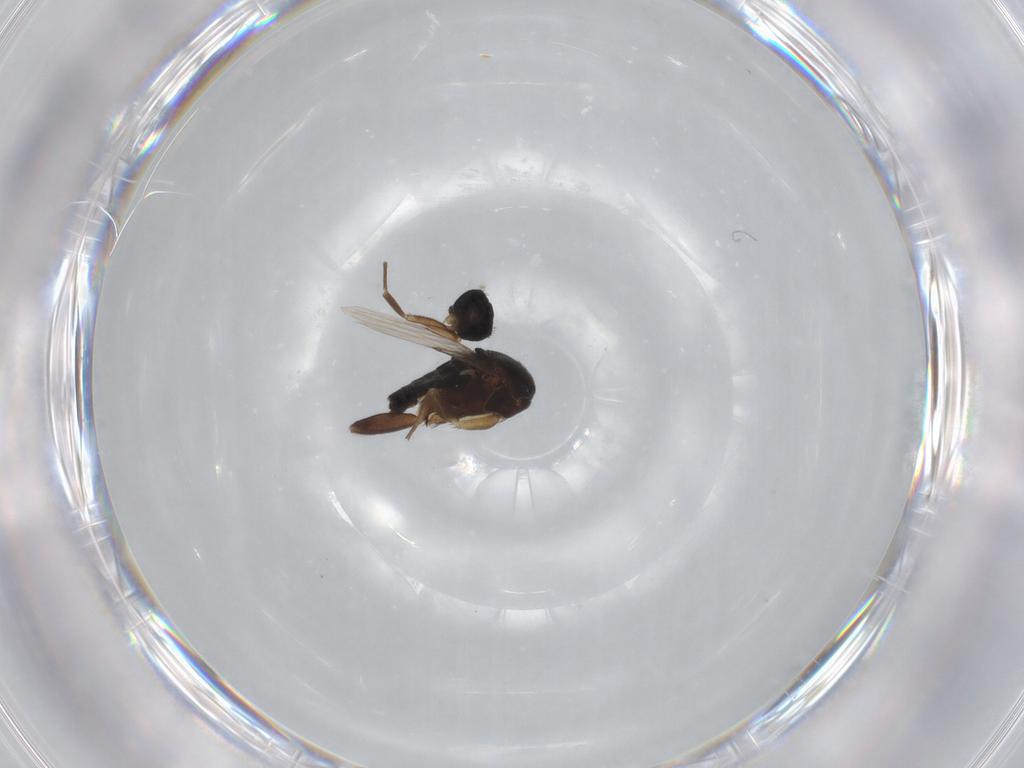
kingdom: Animalia
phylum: Arthropoda
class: Insecta
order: Diptera
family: Phoridae
